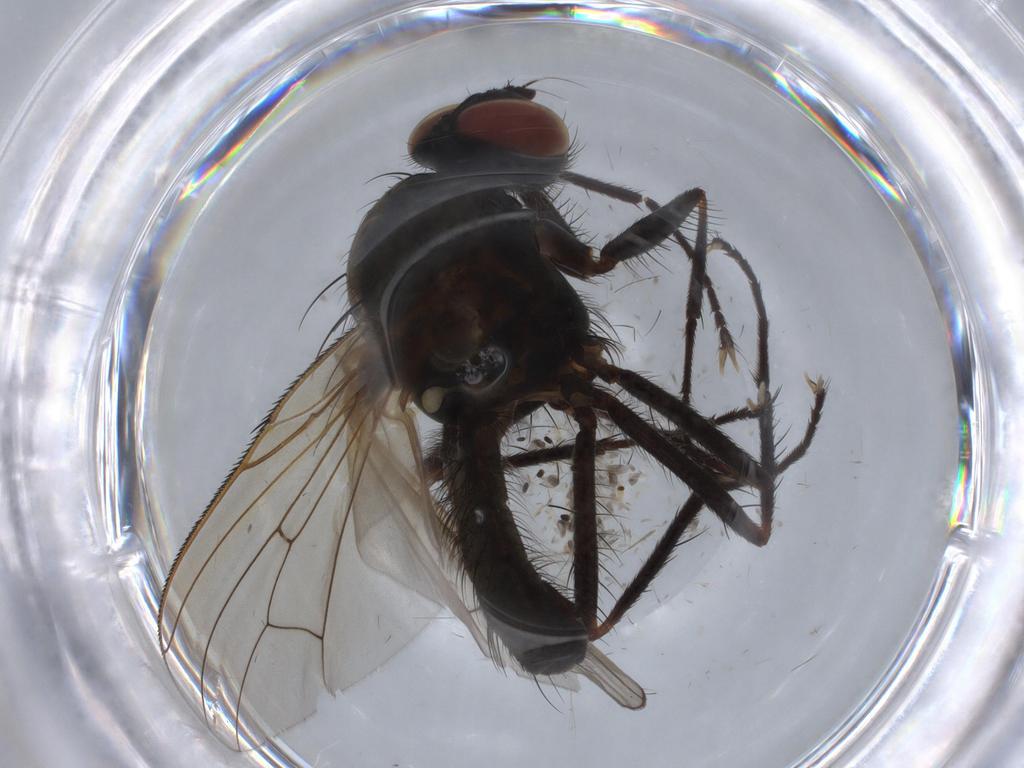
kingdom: Animalia
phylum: Arthropoda
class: Insecta
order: Diptera
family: Anthomyiidae
